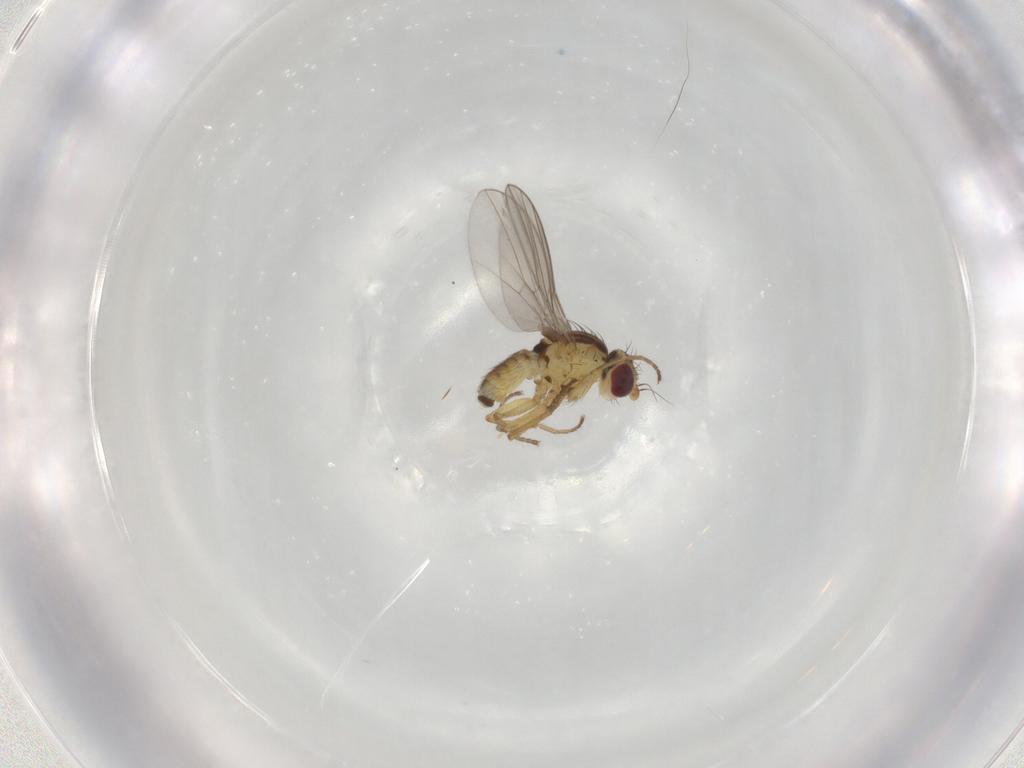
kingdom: Animalia
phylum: Arthropoda
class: Insecta
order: Diptera
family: Agromyzidae
